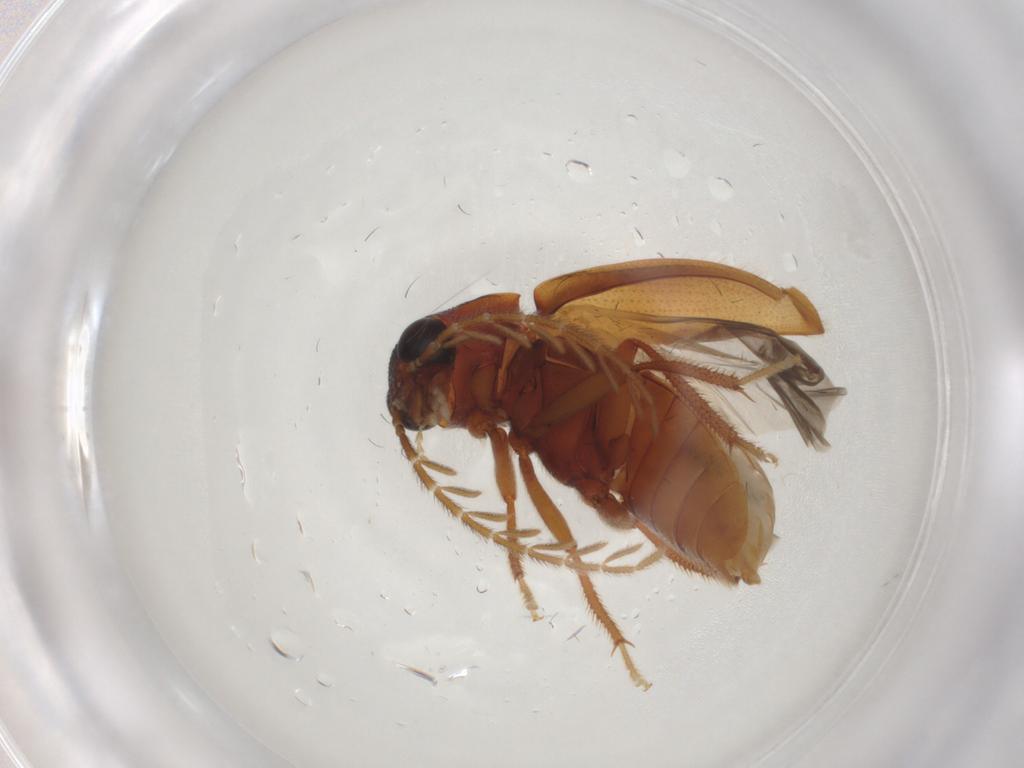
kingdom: Animalia
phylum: Arthropoda
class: Insecta
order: Coleoptera
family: Ptilodactylidae
